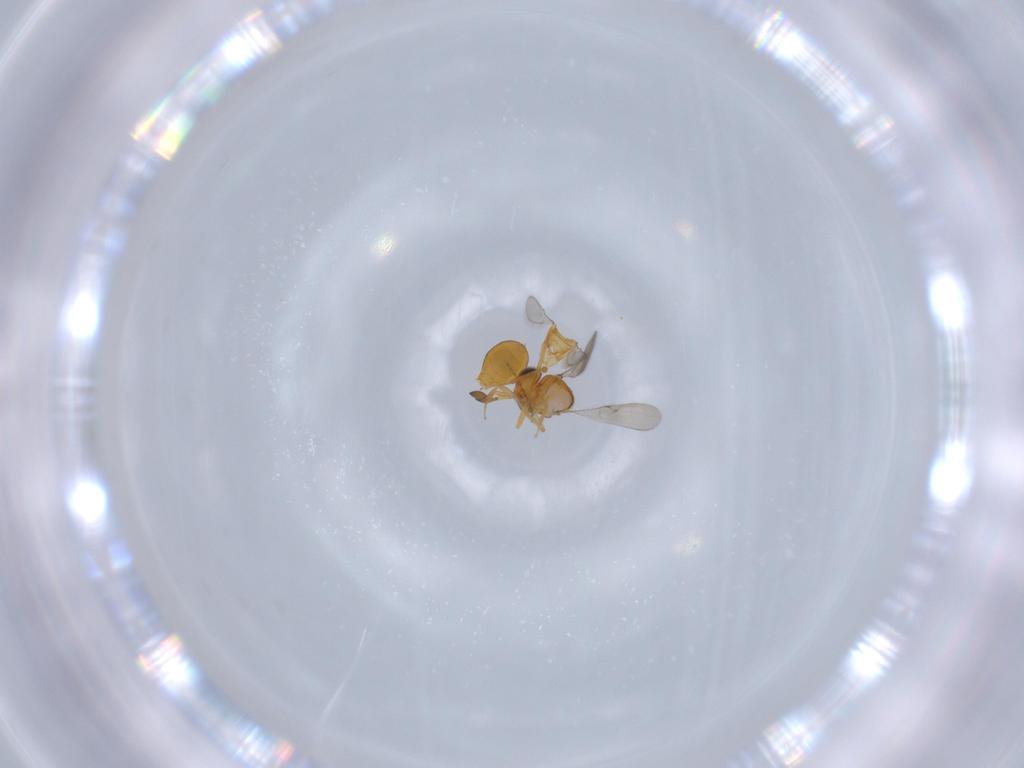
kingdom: Animalia
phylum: Arthropoda
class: Insecta
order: Hymenoptera
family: Scelionidae
